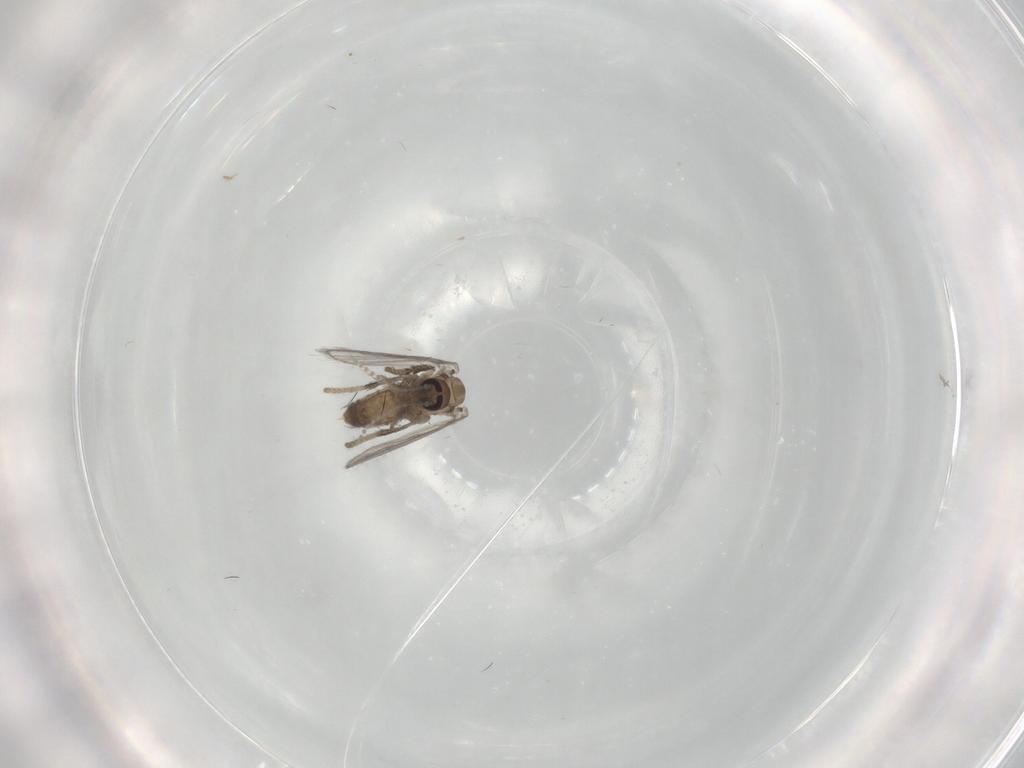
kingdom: Animalia
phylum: Arthropoda
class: Insecta
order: Diptera
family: Psychodidae
